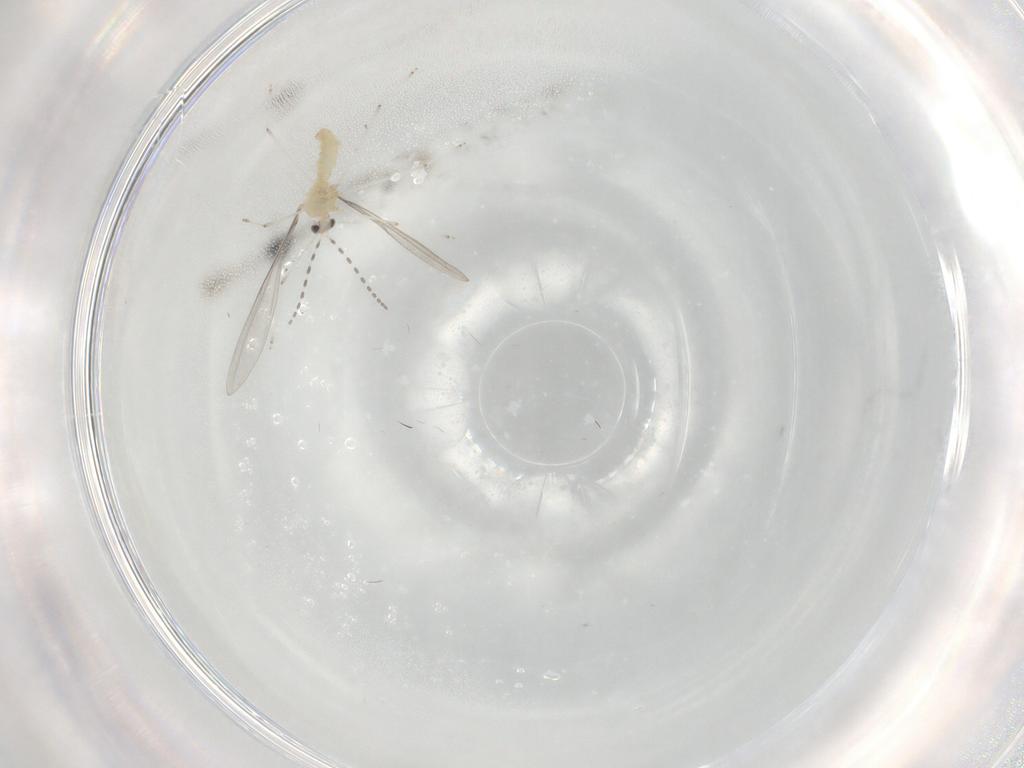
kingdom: Animalia
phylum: Arthropoda
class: Insecta
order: Diptera
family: Cecidomyiidae
